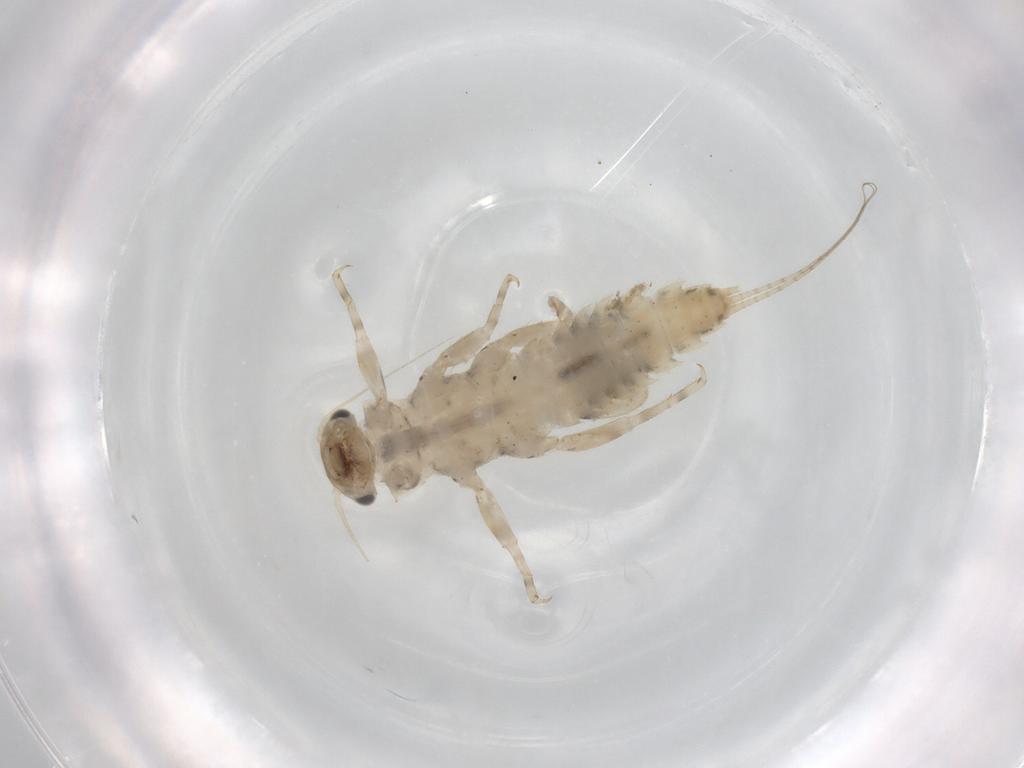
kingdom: Animalia
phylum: Arthropoda
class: Insecta
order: Ephemeroptera
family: Caenidae
